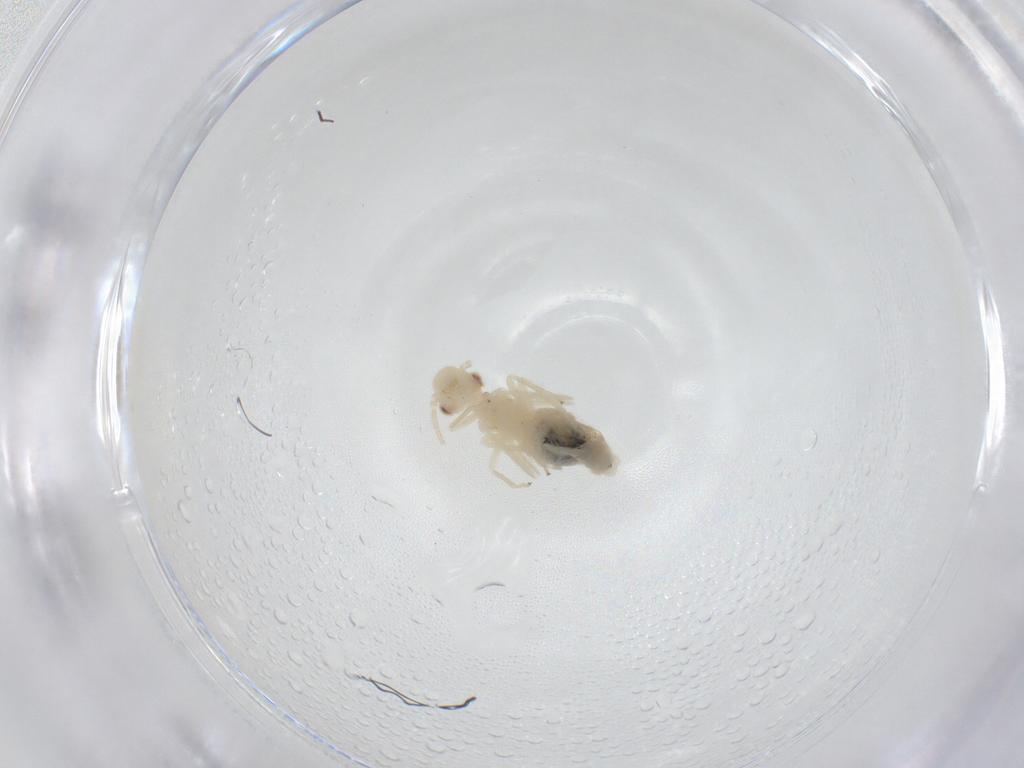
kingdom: Animalia
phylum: Arthropoda
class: Insecta
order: Psocodea
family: Caeciliusidae
